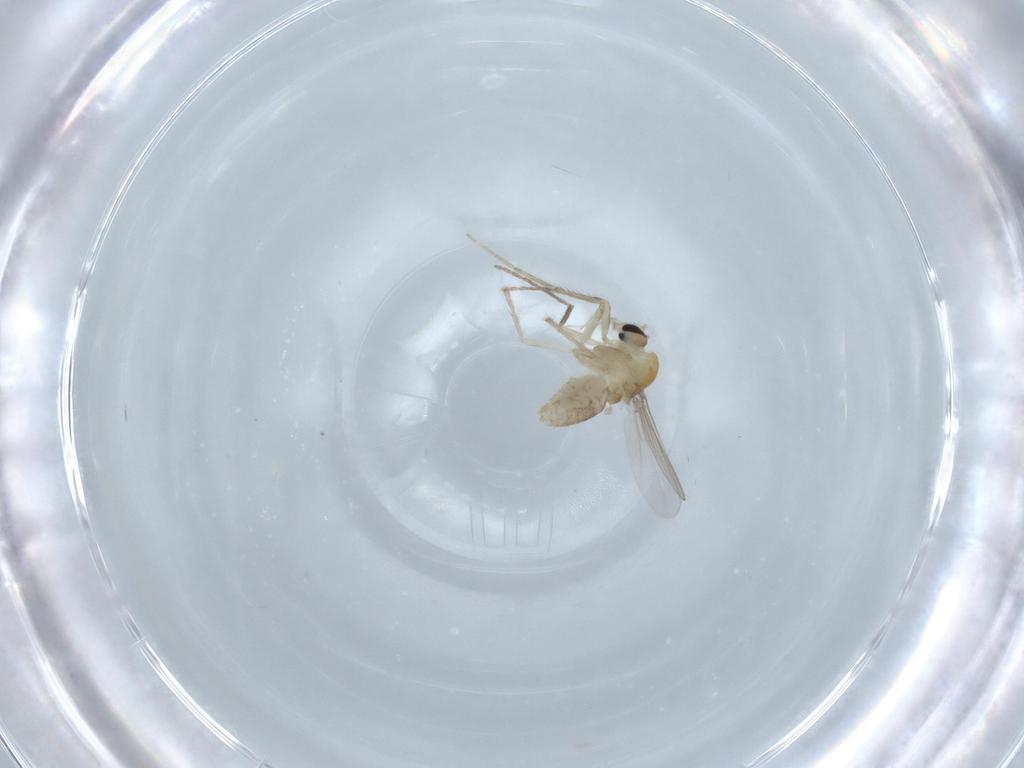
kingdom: Animalia
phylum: Arthropoda
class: Insecta
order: Diptera
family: Chironomidae
